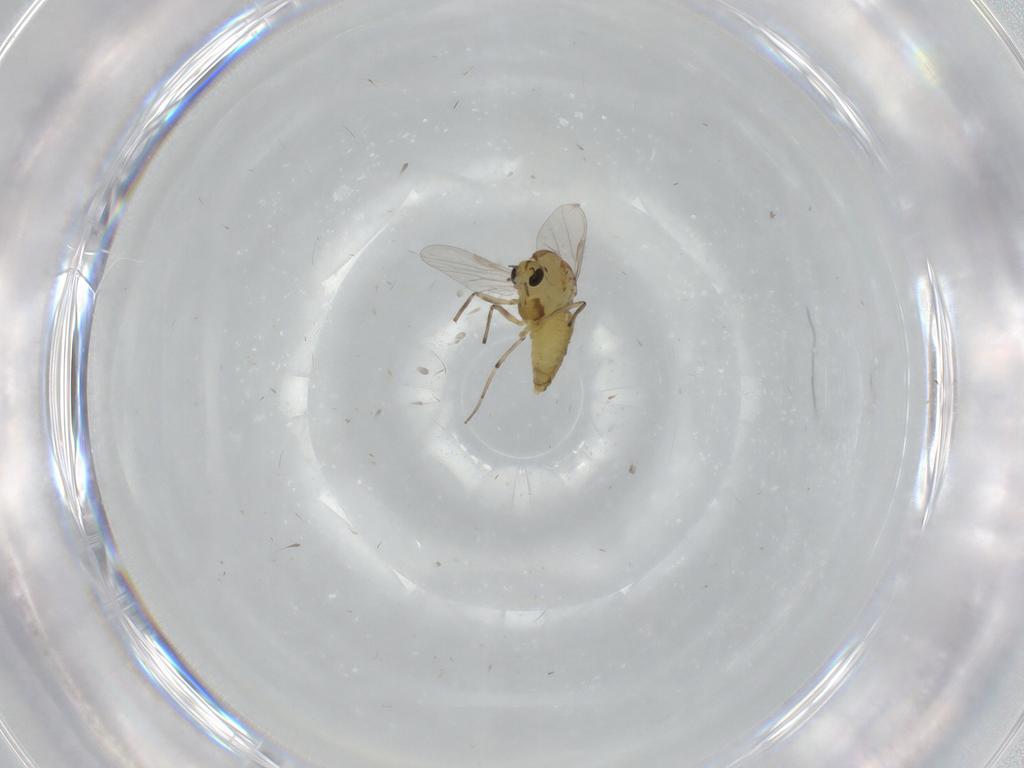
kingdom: Animalia
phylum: Arthropoda
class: Insecta
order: Diptera
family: Chironomidae
